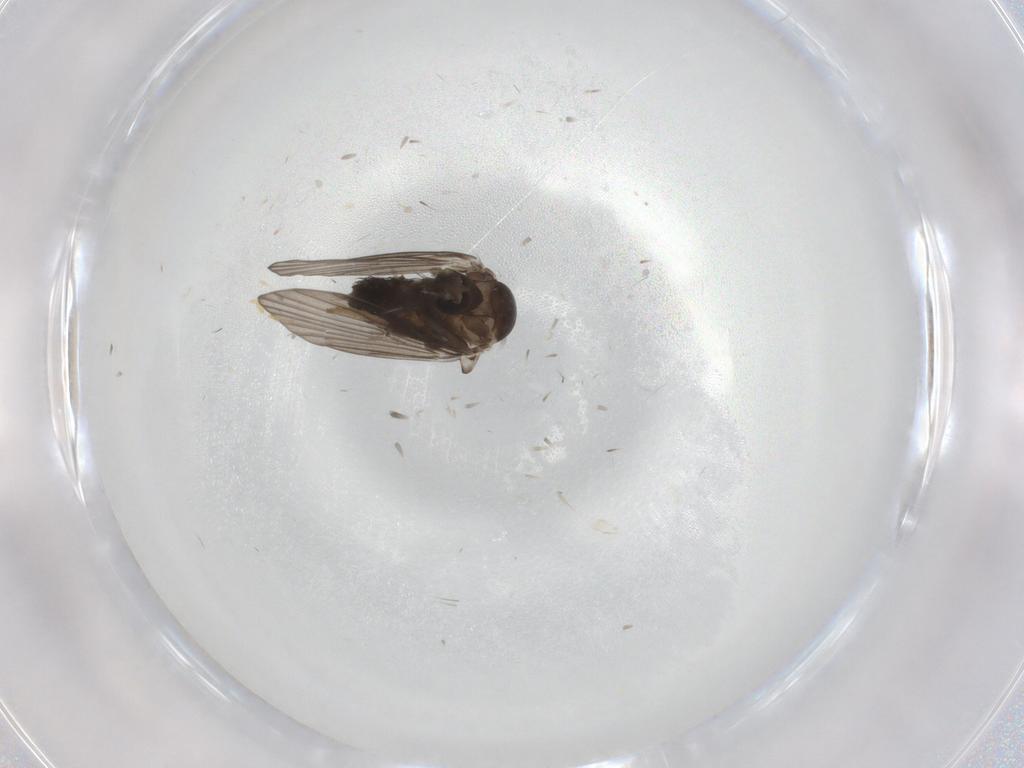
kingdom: Animalia
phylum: Arthropoda
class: Insecta
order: Diptera
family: Psychodidae
